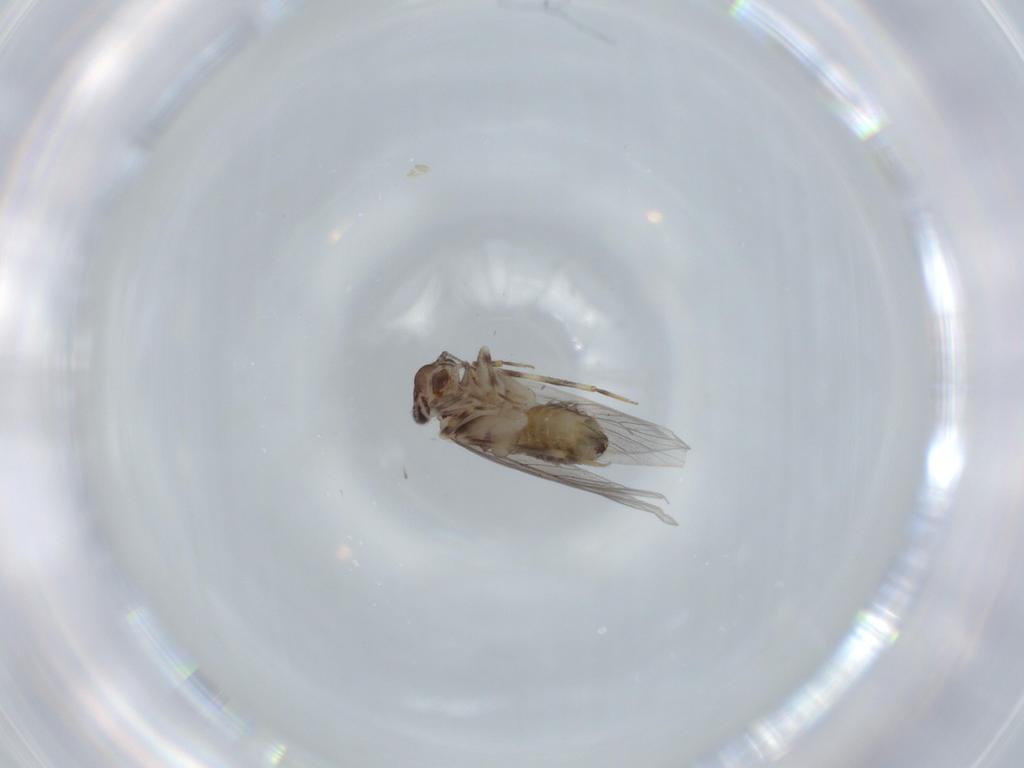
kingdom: Animalia
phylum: Arthropoda
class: Insecta
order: Psocodea
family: Lepidopsocidae
